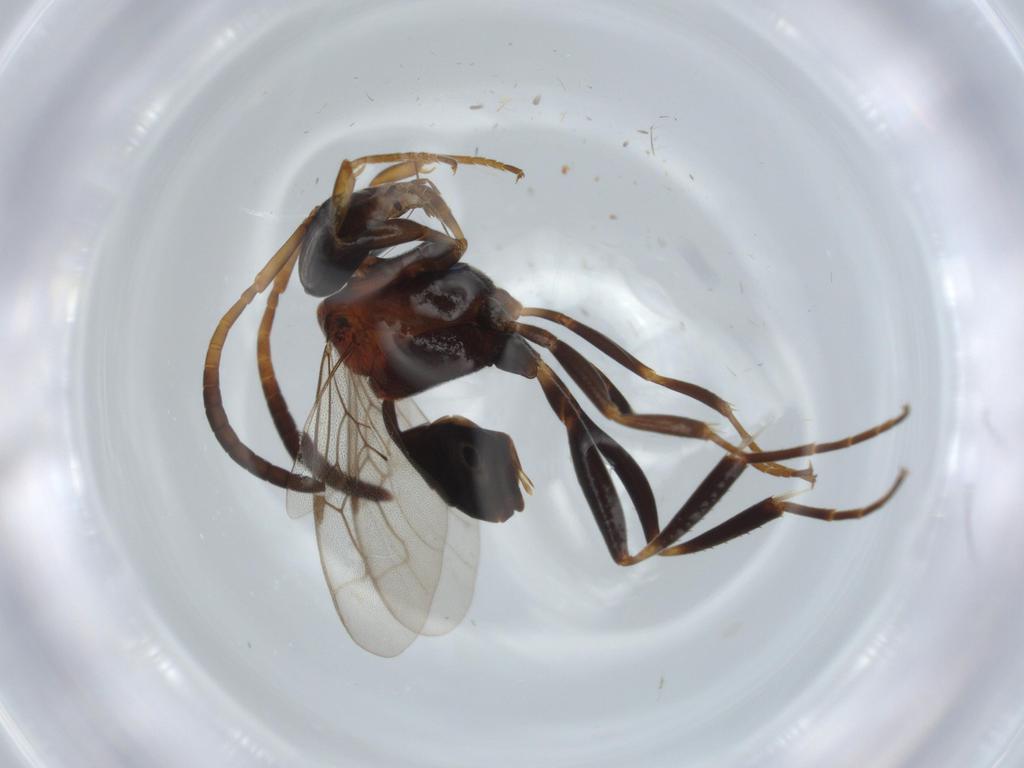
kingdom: Animalia
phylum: Arthropoda
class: Insecta
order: Hymenoptera
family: Evaniidae
